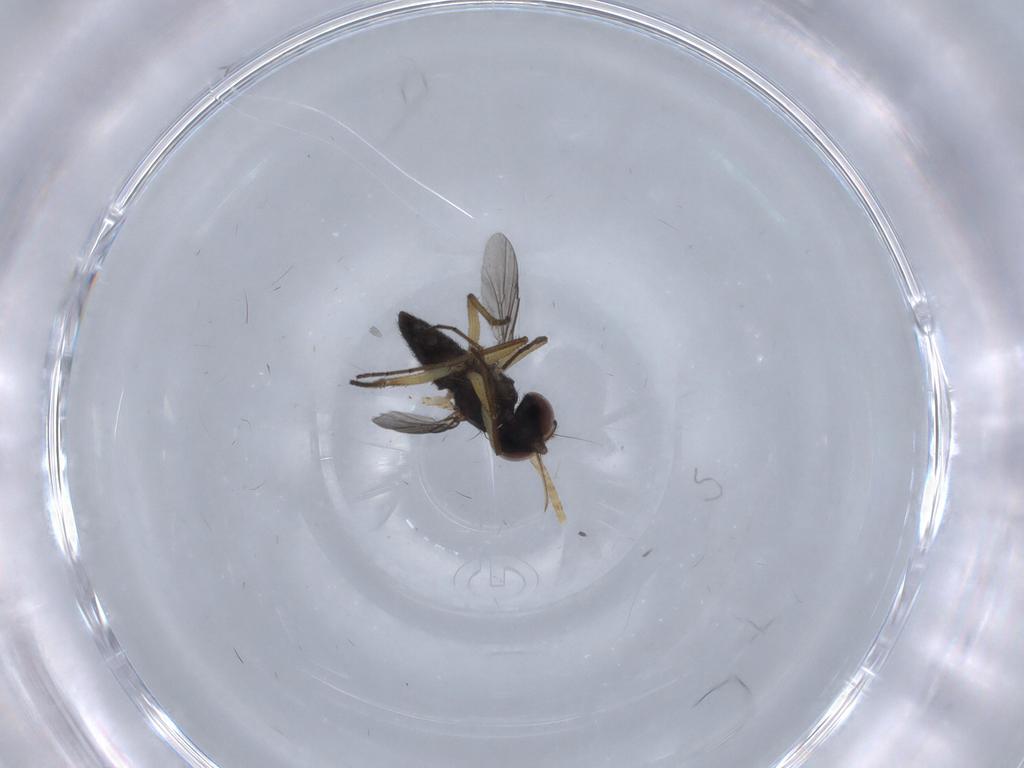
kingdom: Animalia
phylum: Arthropoda
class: Insecta
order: Diptera
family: Dolichopodidae
